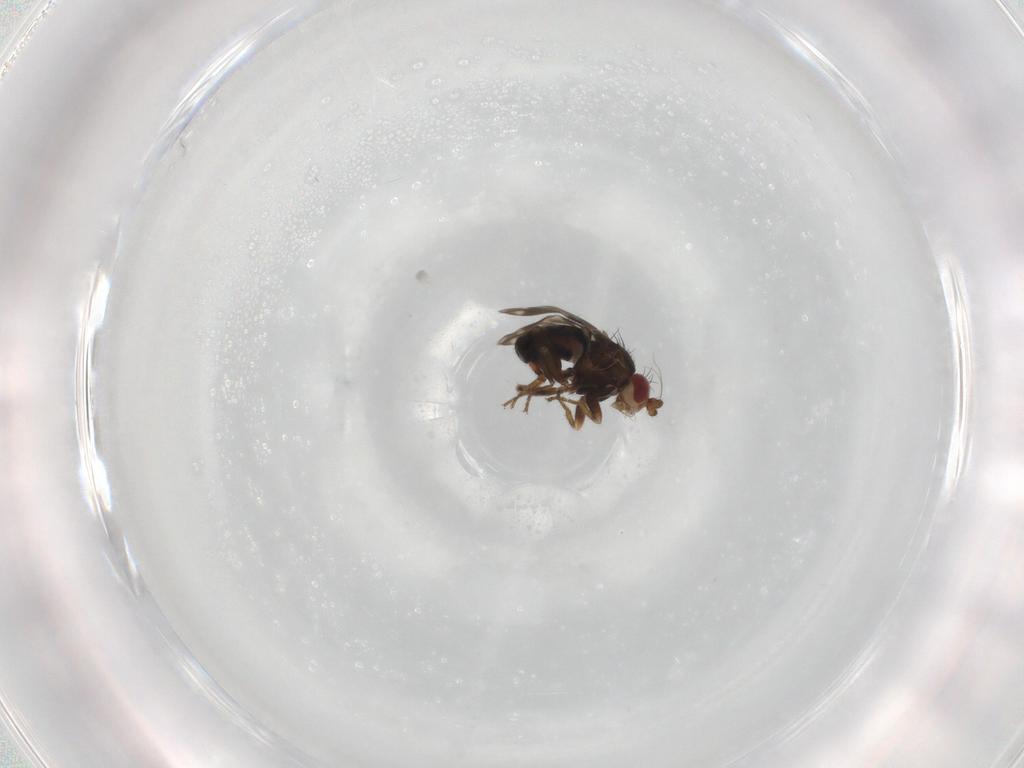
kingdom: Animalia
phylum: Arthropoda
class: Insecta
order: Diptera
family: Sphaeroceridae
